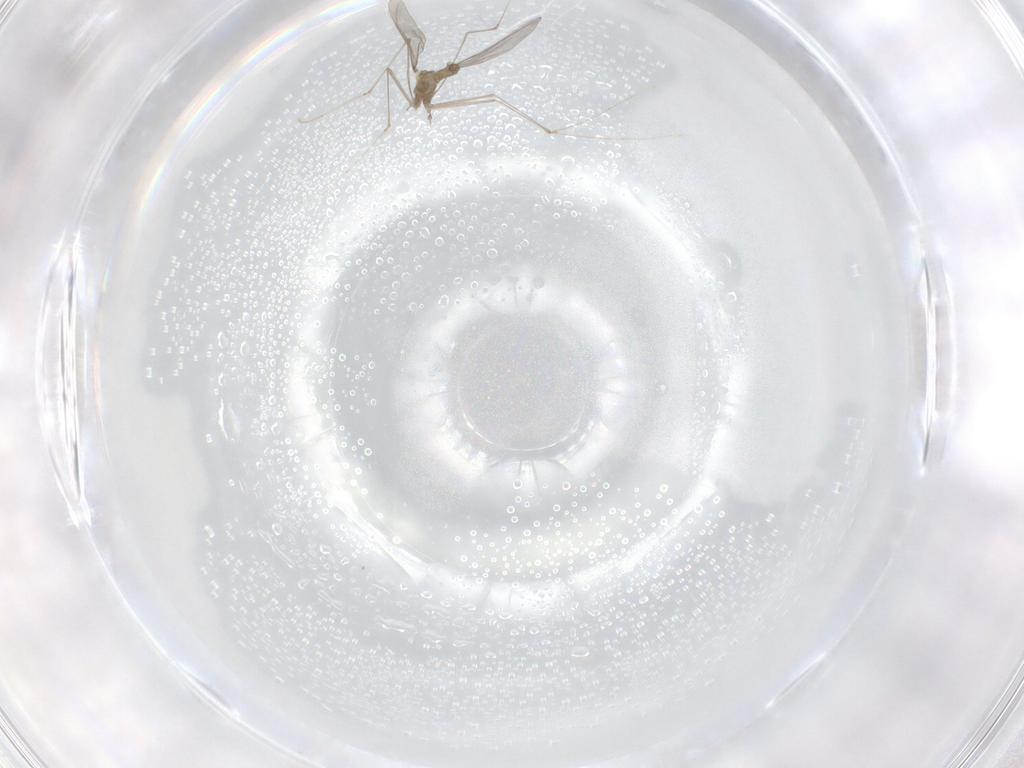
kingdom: Animalia
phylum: Arthropoda
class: Insecta
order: Diptera
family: Cecidomyiidae
